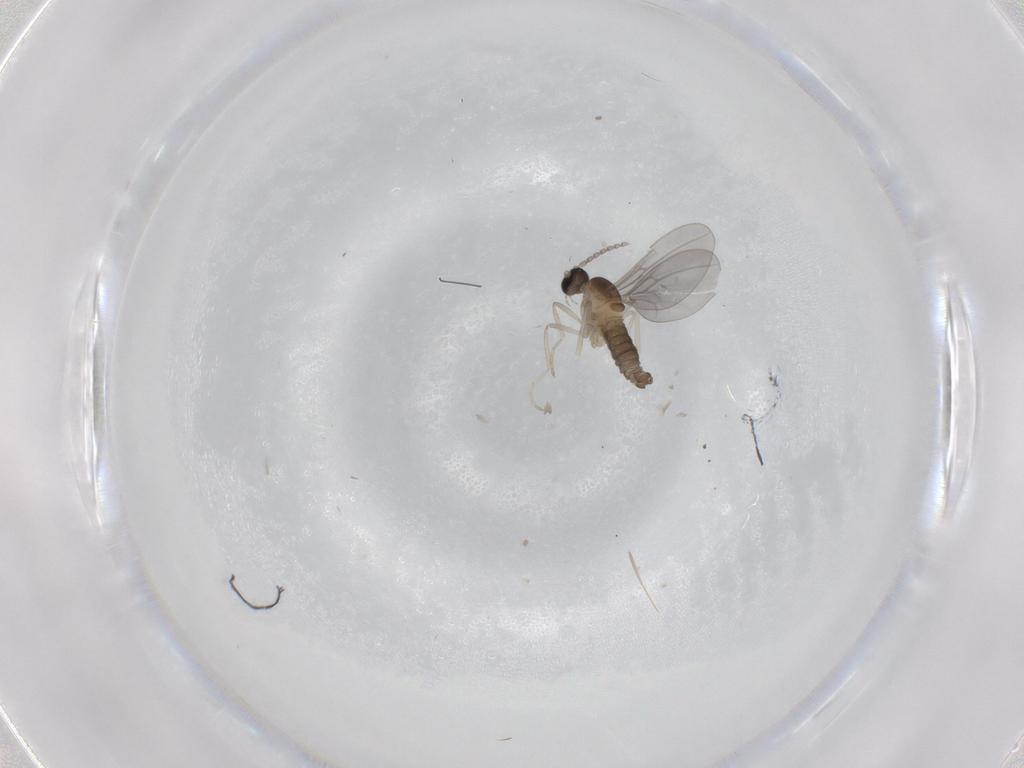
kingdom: Animalia
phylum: Arthropoda
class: Insecta
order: Diptera
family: Cecidomyiidae
